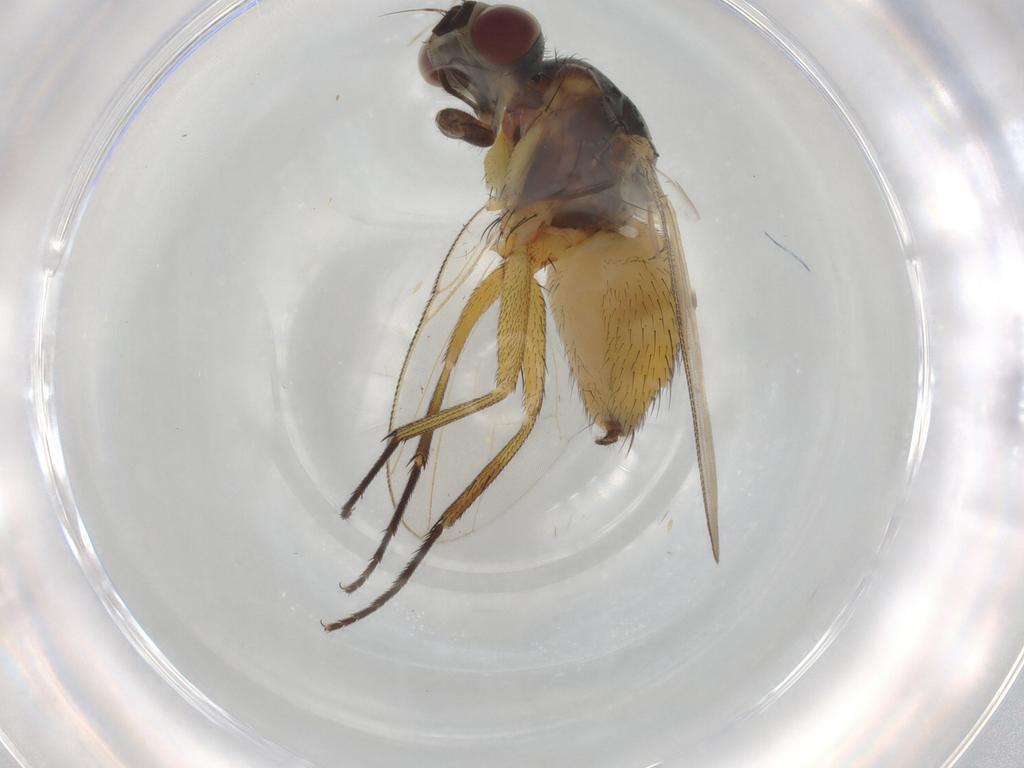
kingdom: Animalia
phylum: Arthropoda
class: Insecta
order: Diptera
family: Muscidae
